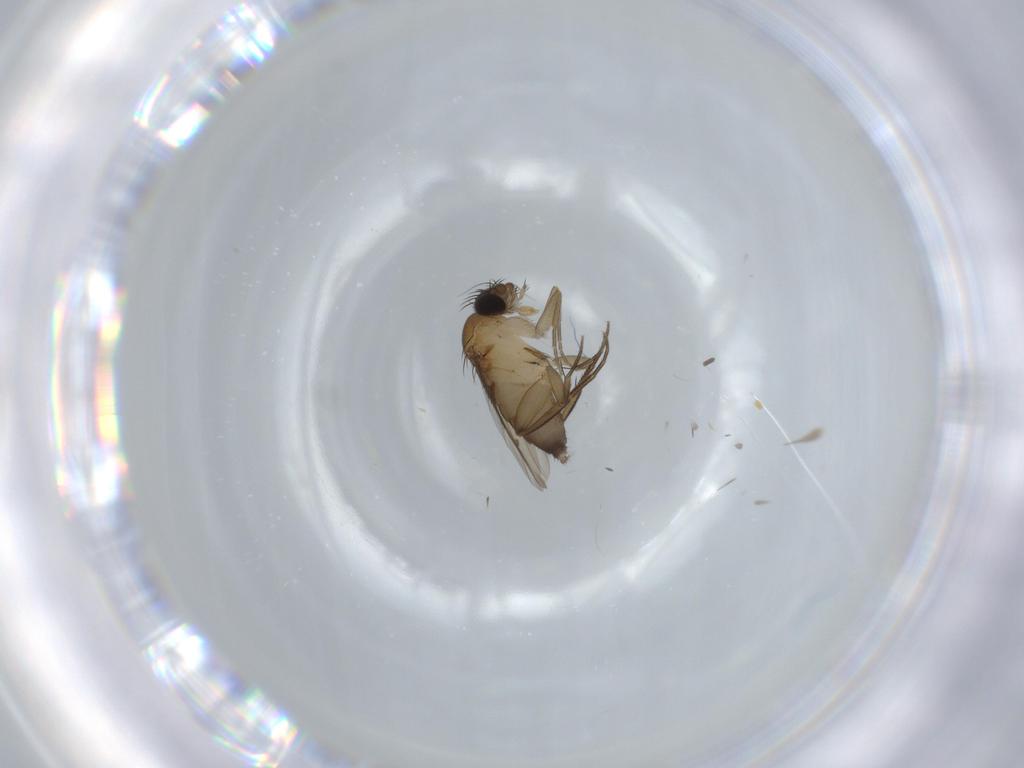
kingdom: Animalia
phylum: Arthropoda
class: Insecta
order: Diptera
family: Phoridae
